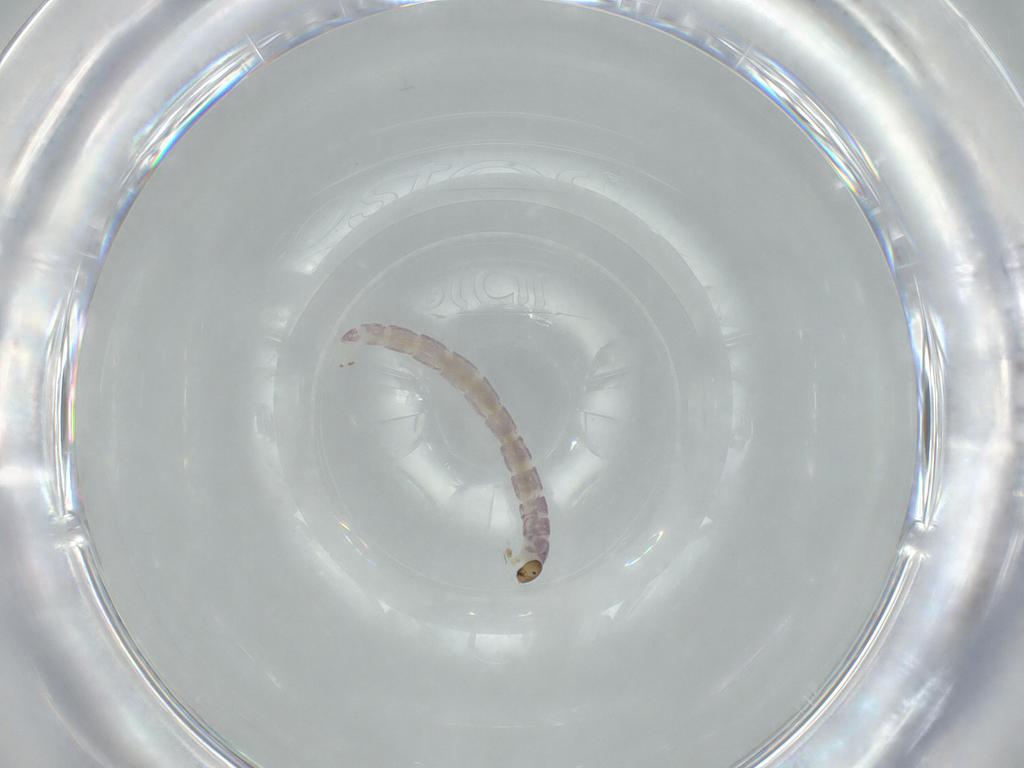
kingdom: Animalia
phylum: Arthropoda
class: Insecta
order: Diptera
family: Chironomidae
